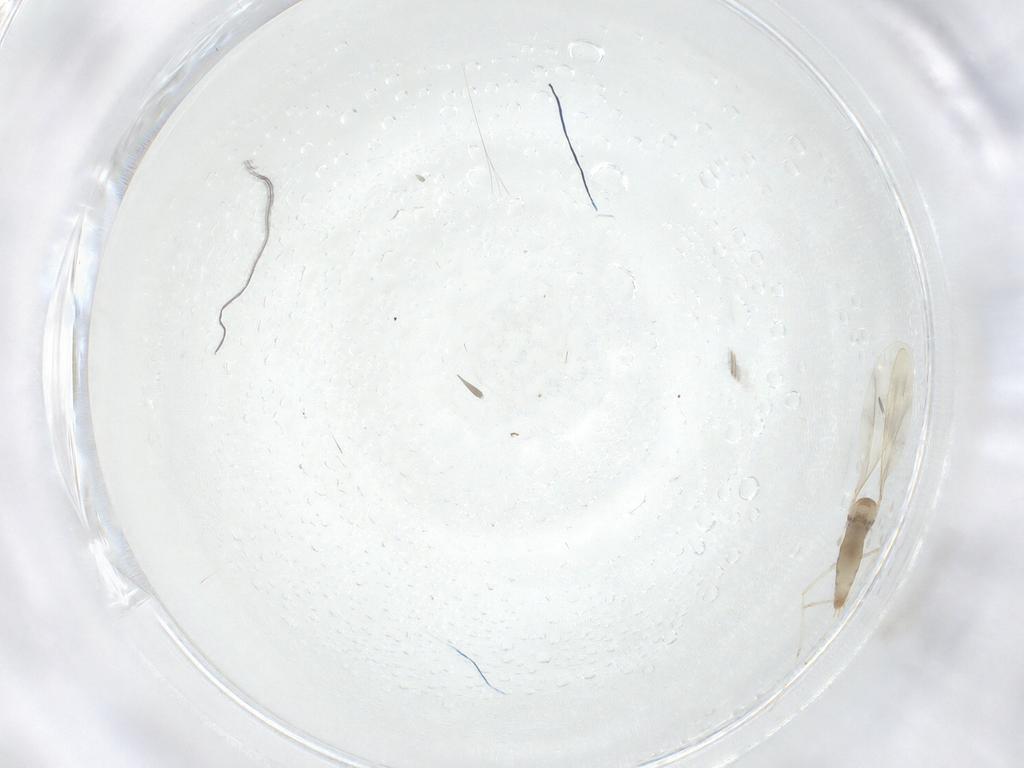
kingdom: Animalia
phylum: Arthropoda
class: Insecta
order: Diptera
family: Cecidomyiidae
